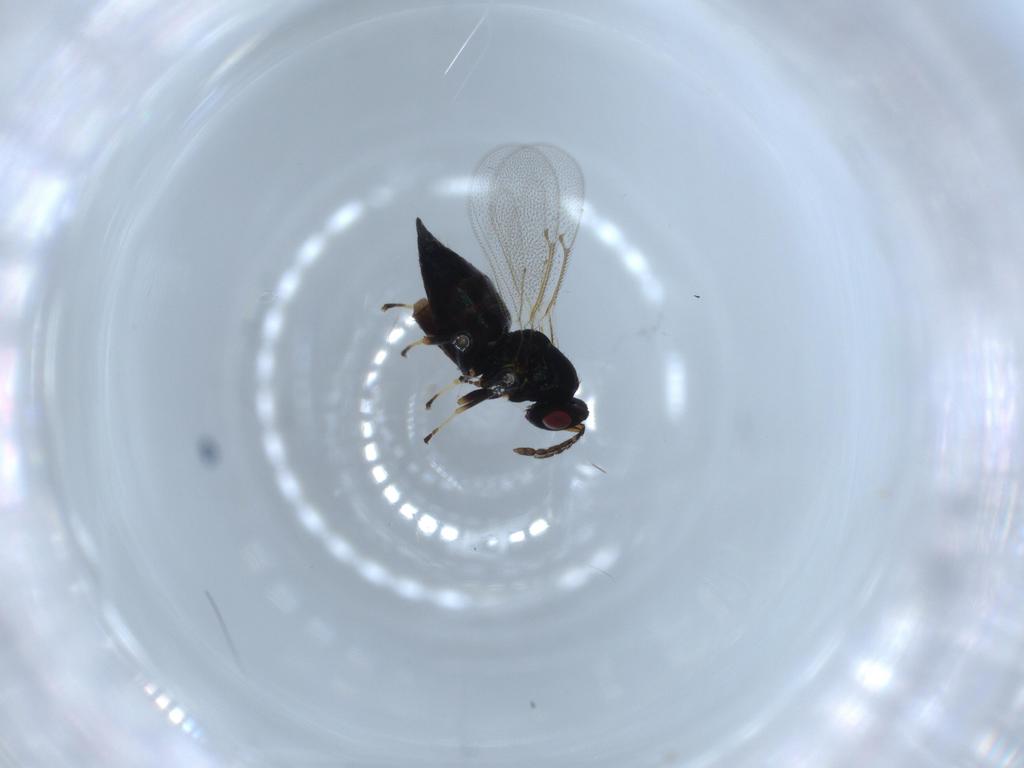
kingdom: Animalia
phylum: Arthropoda
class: Insecta
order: Hymenoptera
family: Eulophidae
